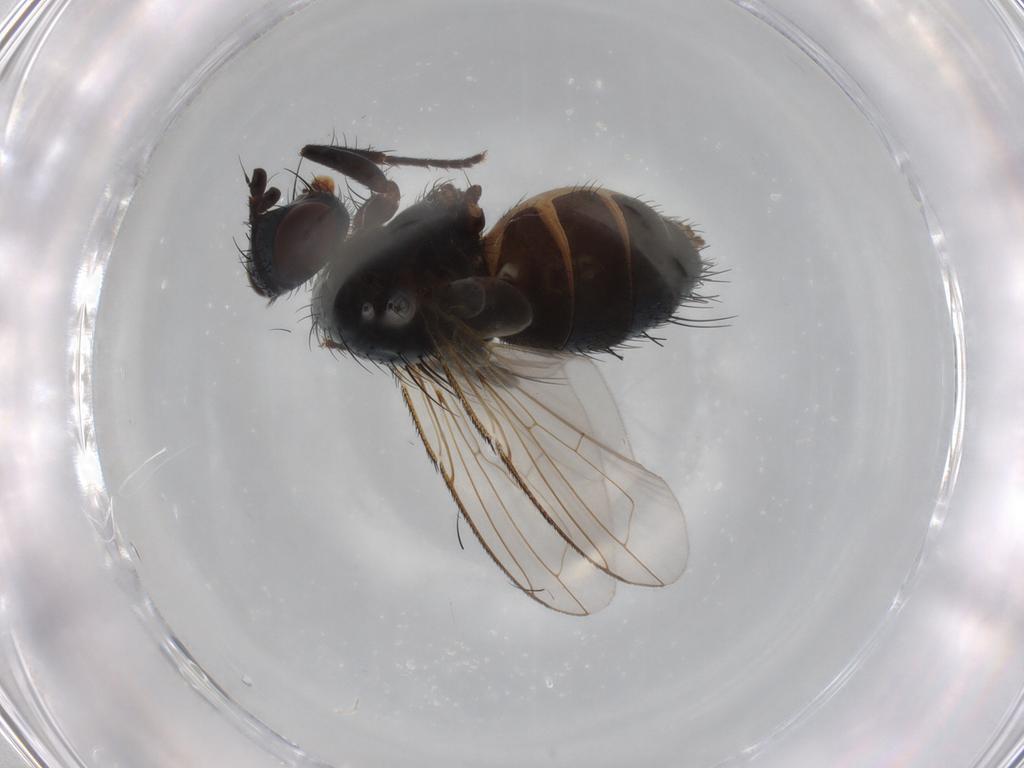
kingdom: Animalia
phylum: Arthropoda
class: Insecta
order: Diptera
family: Tachinidae
